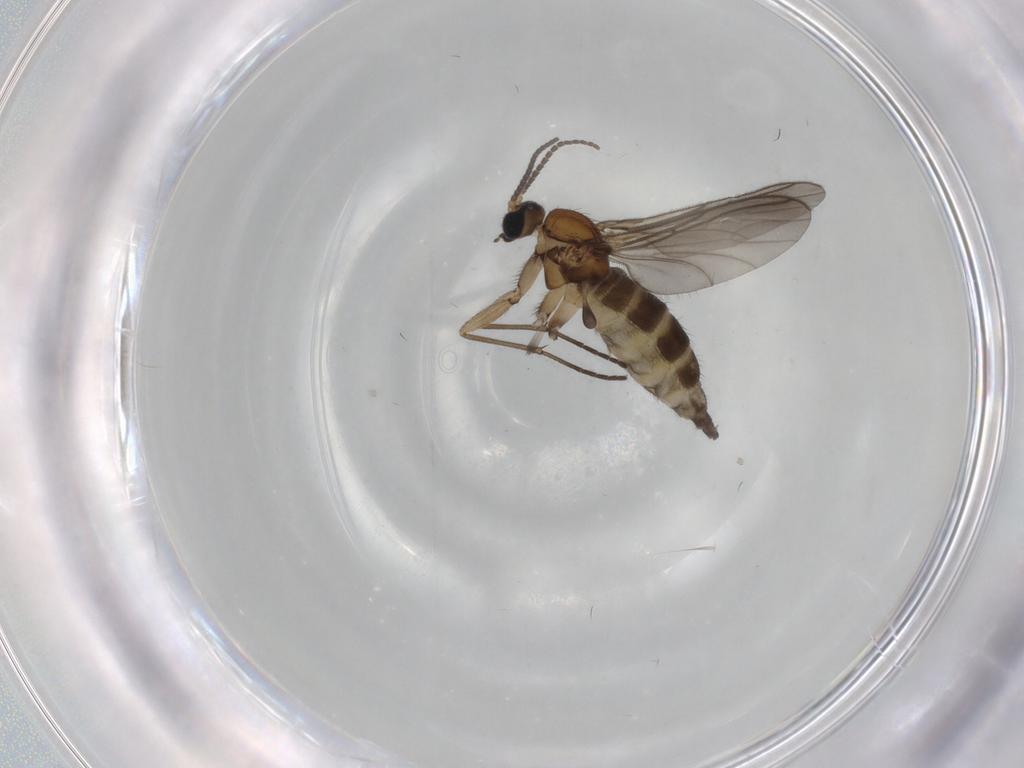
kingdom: Animalia
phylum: Arthropoda
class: Insecta
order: Diptera
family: Sciaridae
